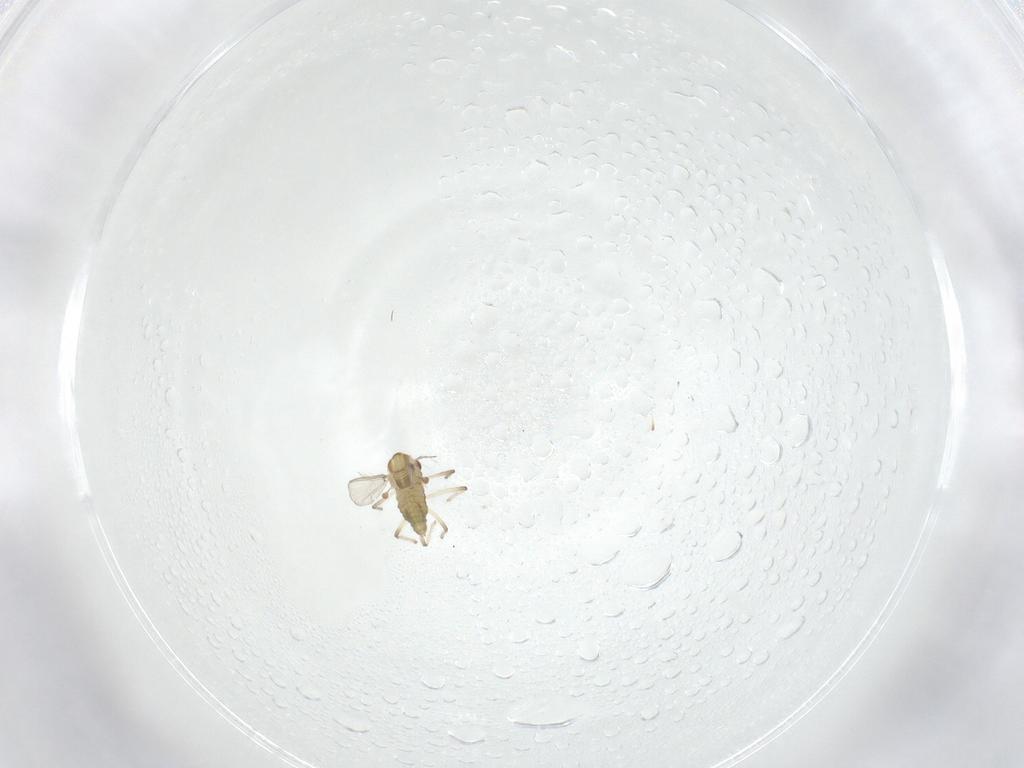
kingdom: Animalia
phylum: Arthropoda
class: Insecta
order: Diptera
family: Chironomidae
